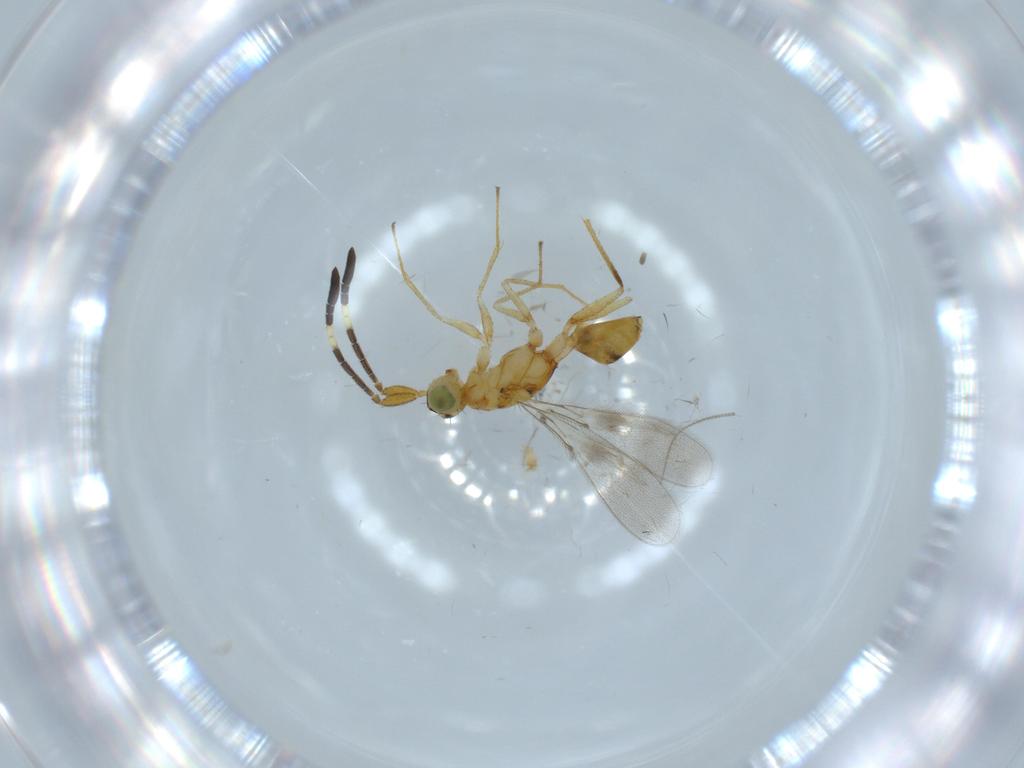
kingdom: Animalia
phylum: Arthropoda
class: Insecta
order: Hymenoptera
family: Mymaridae
